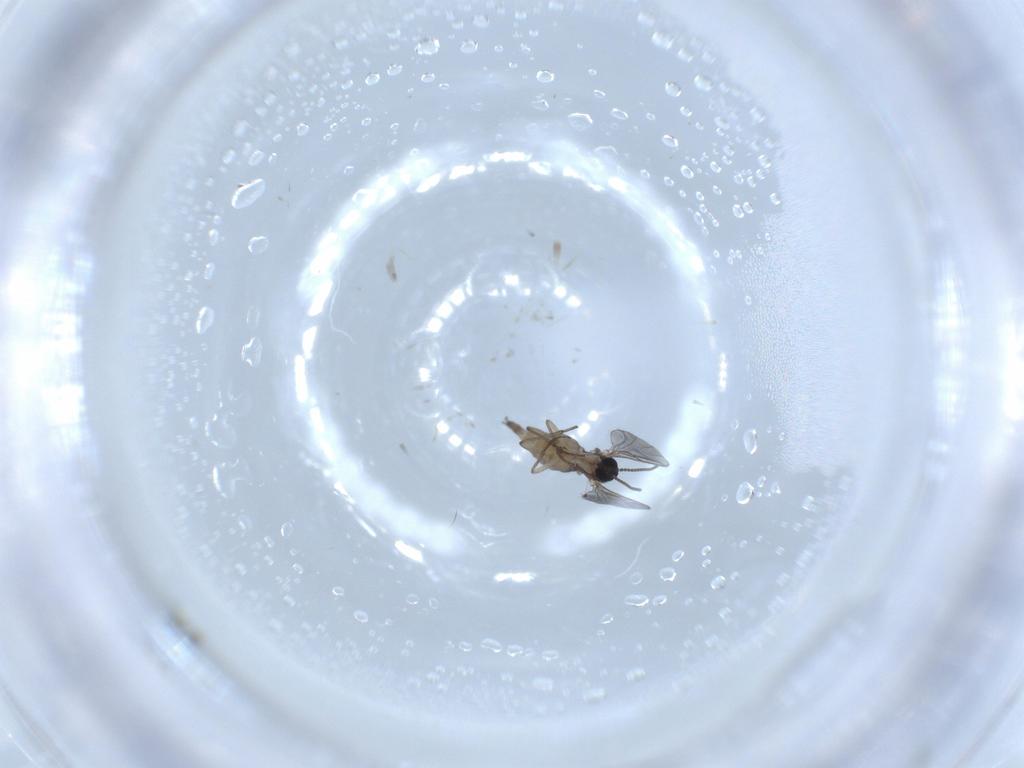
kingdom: Animalia
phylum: Arthropoda
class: Insecta
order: Diptera
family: Sciaridae
